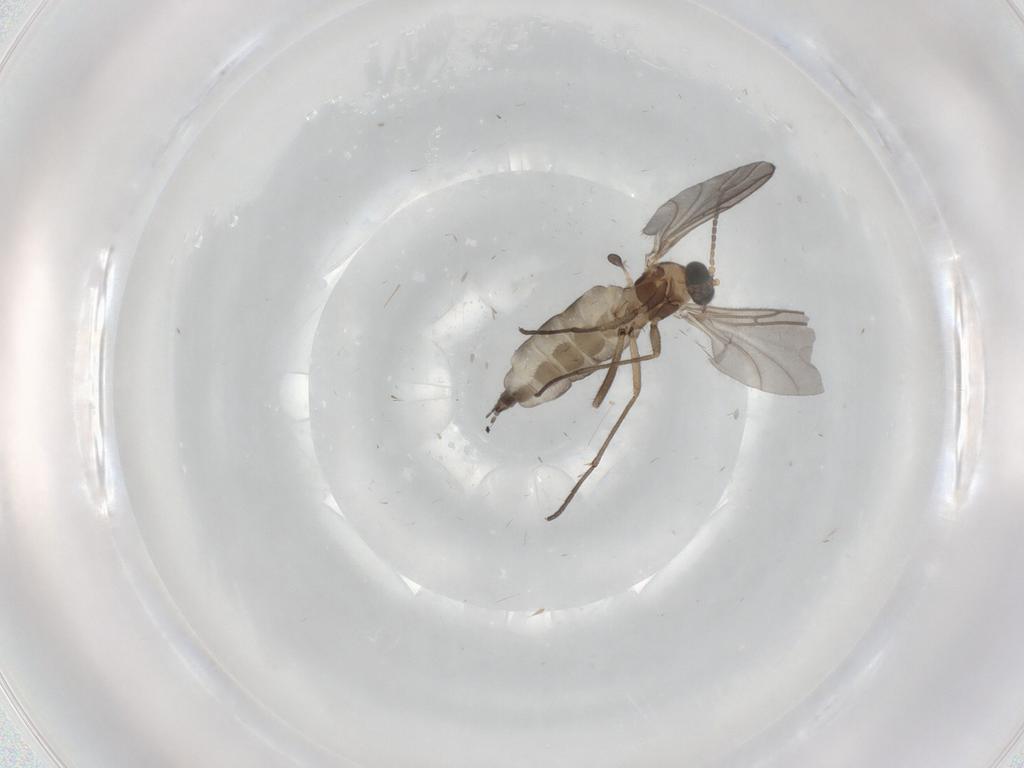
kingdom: Animalia
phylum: Arthropoda
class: Insecta
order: Diptera
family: Sciaridae
